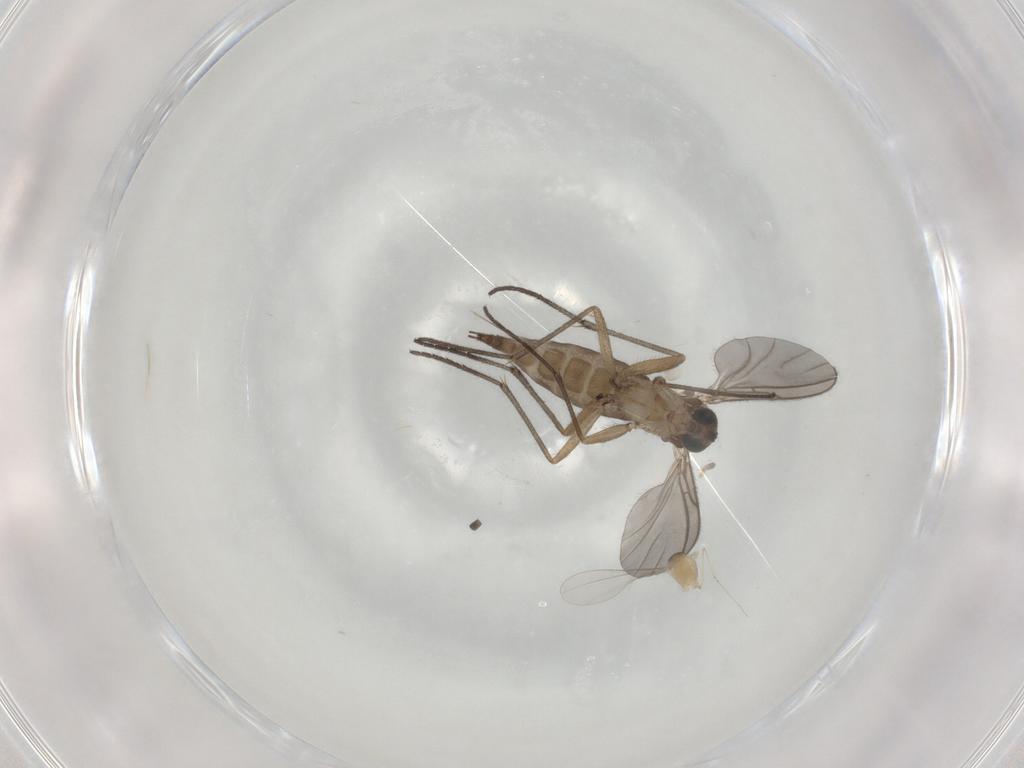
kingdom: Animalia
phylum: Arthropoda
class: Insecta
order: Diptera
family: Sciaridae
